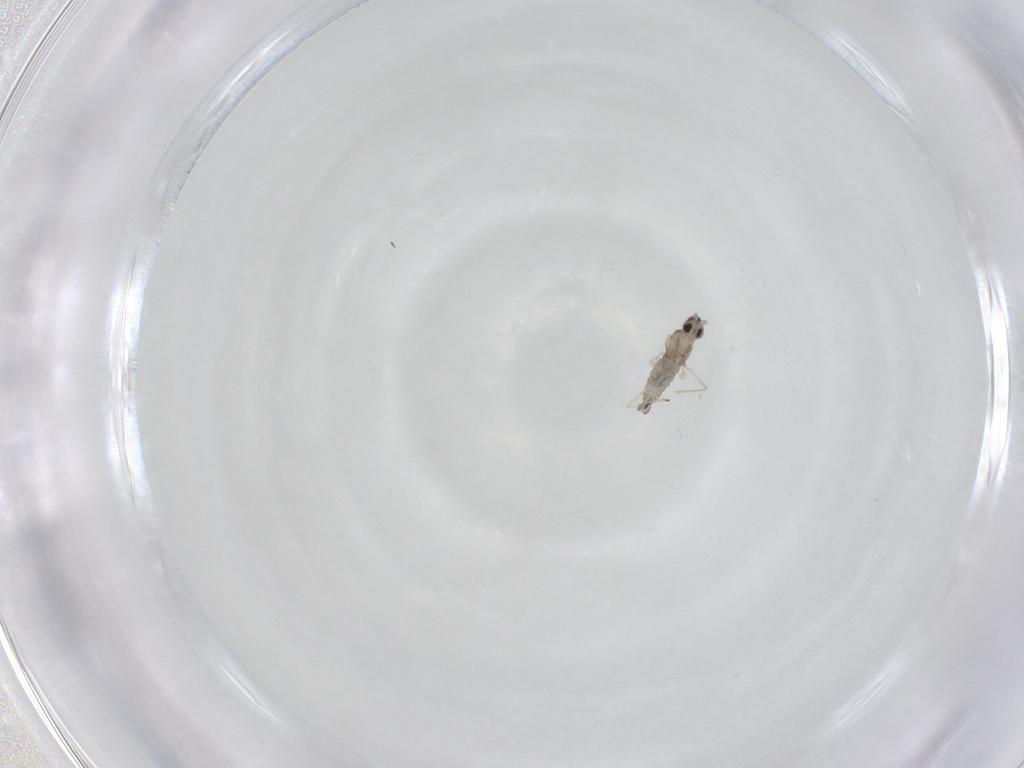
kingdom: Animalia
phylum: Arthropoda
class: Insecta
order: Diptera
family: Cecidomyiidae
